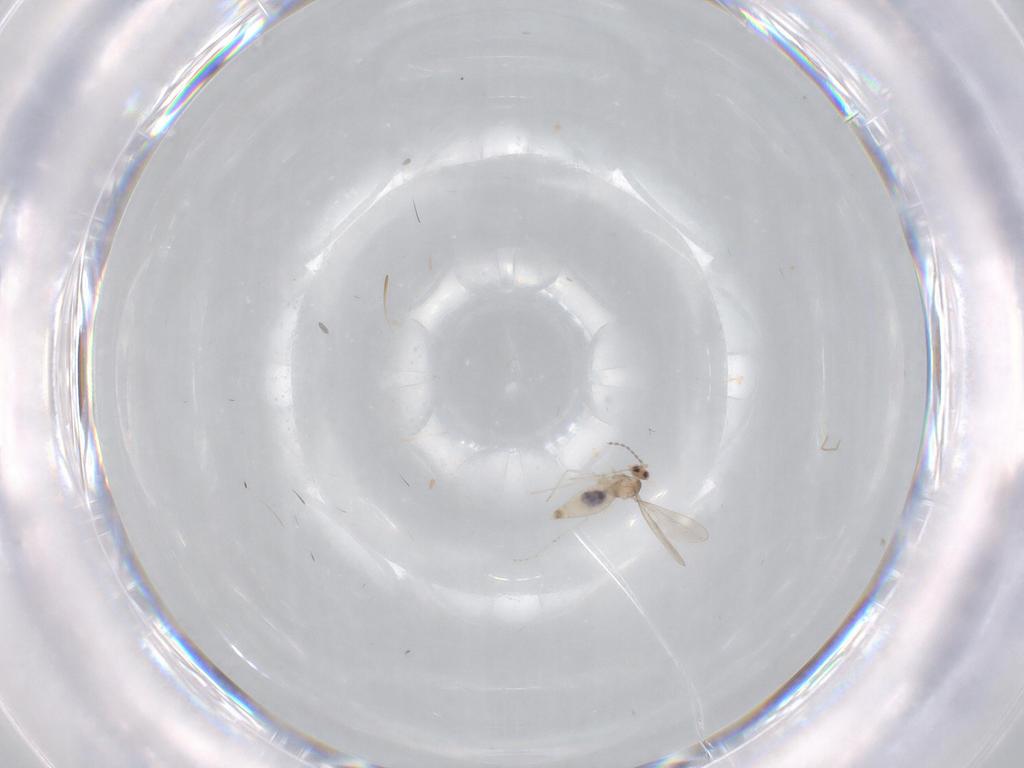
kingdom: Animalia
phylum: Arthropoda
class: Insecta
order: Diptera
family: Cecidomyiidae
